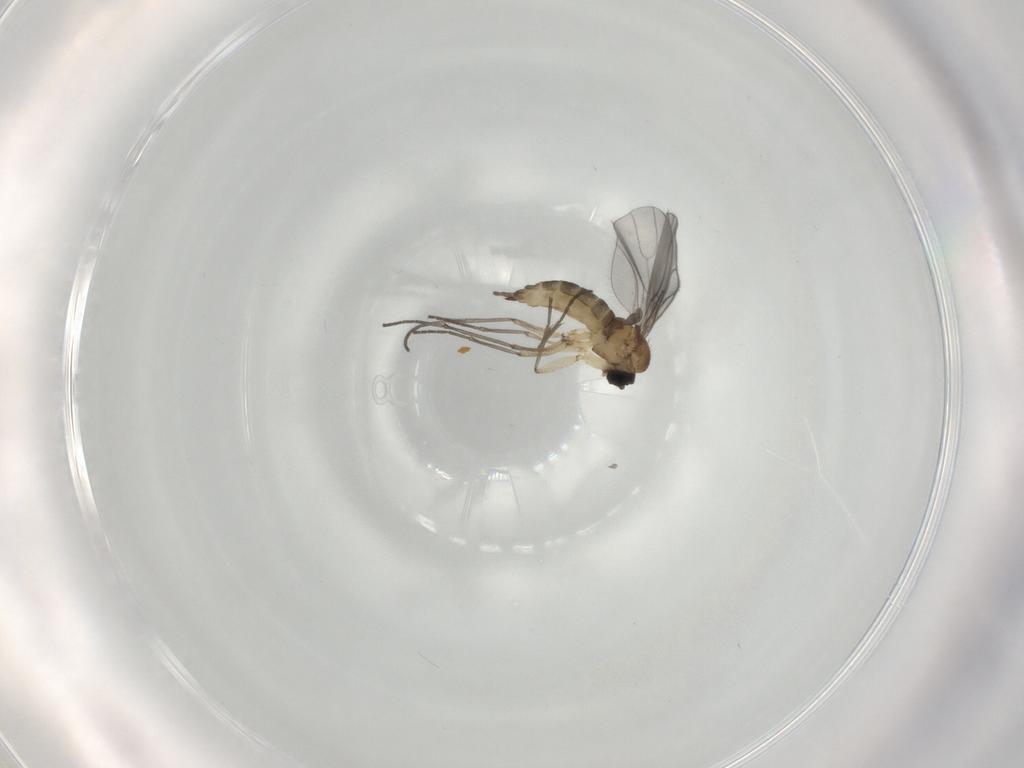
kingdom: Animalia
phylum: Arthropoda
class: Insecta
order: Diptera
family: Sciaridae
